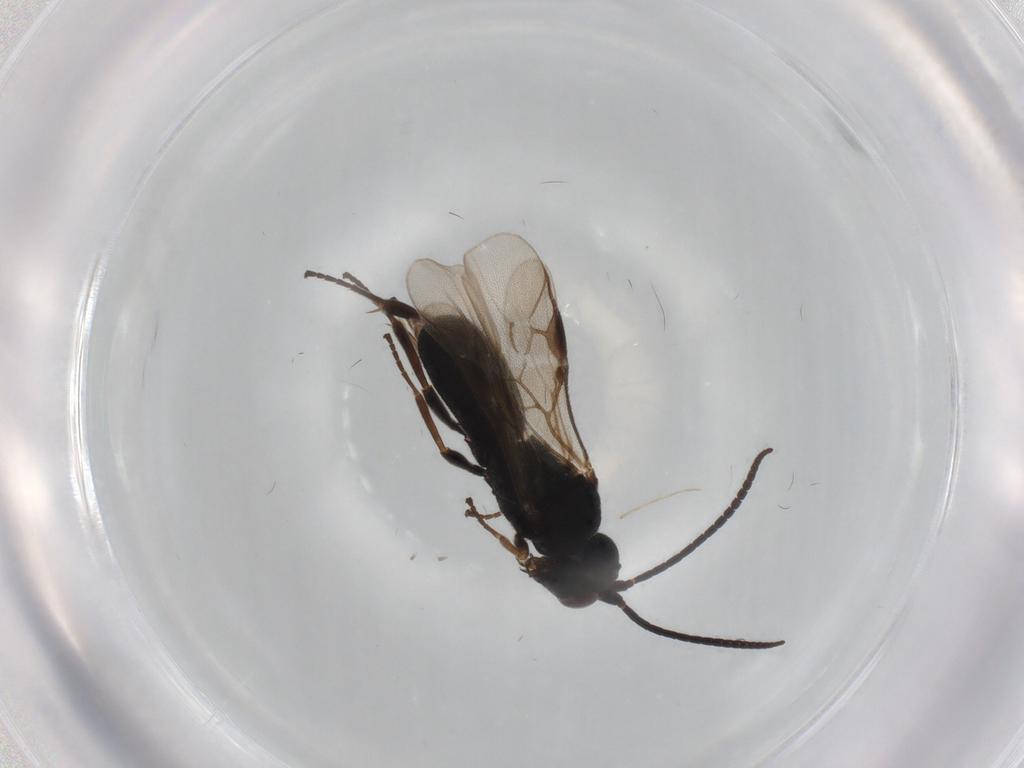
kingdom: Animalia
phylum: Arthropoda
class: Insecta
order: Hymenoptera
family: Braconidae
